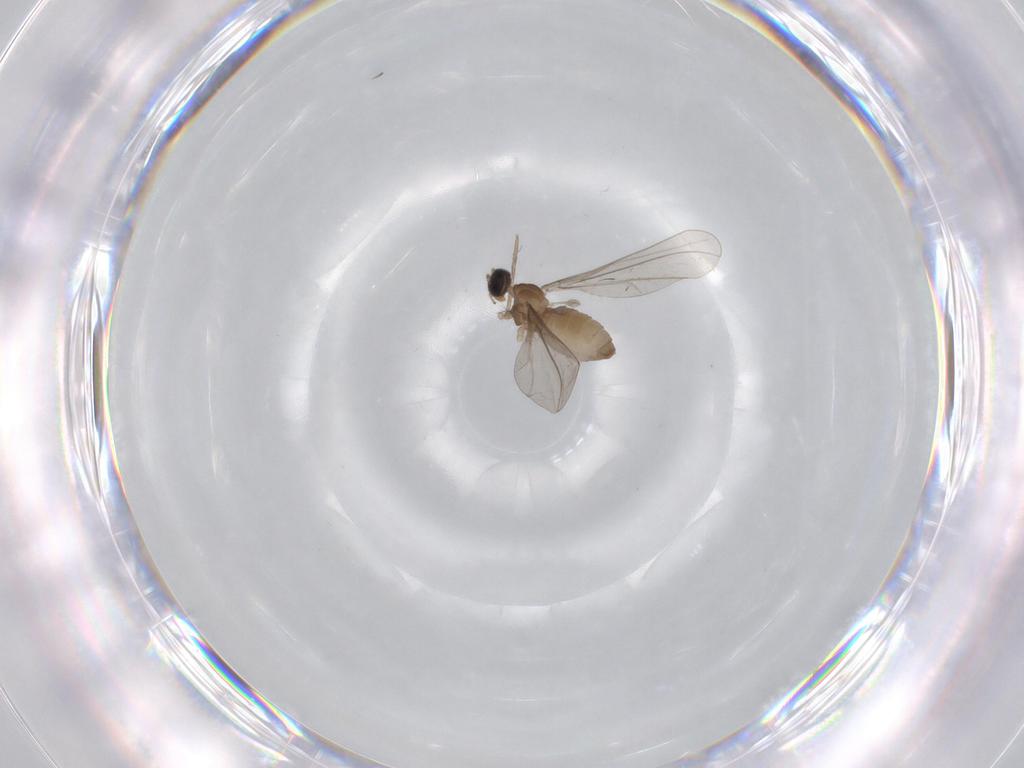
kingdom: Animalia
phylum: Arthropoda
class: Insecta
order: Diptera
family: Cecidomyiidae
